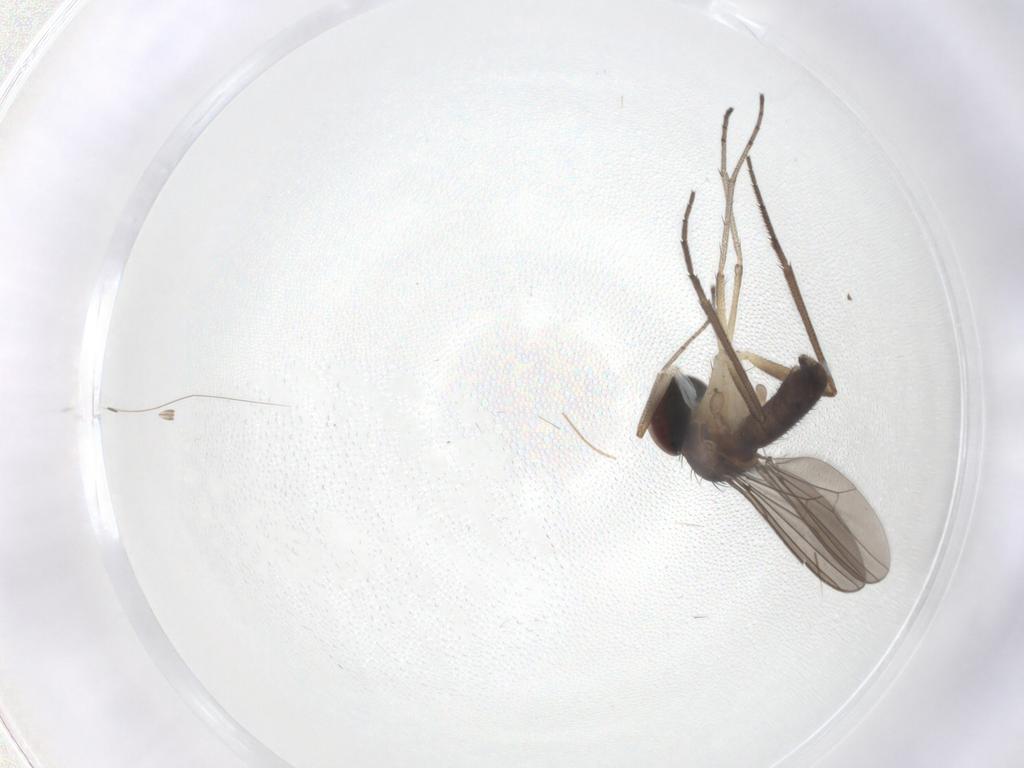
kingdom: Animalia
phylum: Arthropoda
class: Insecta
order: Diptera
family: Dolichopodidae
